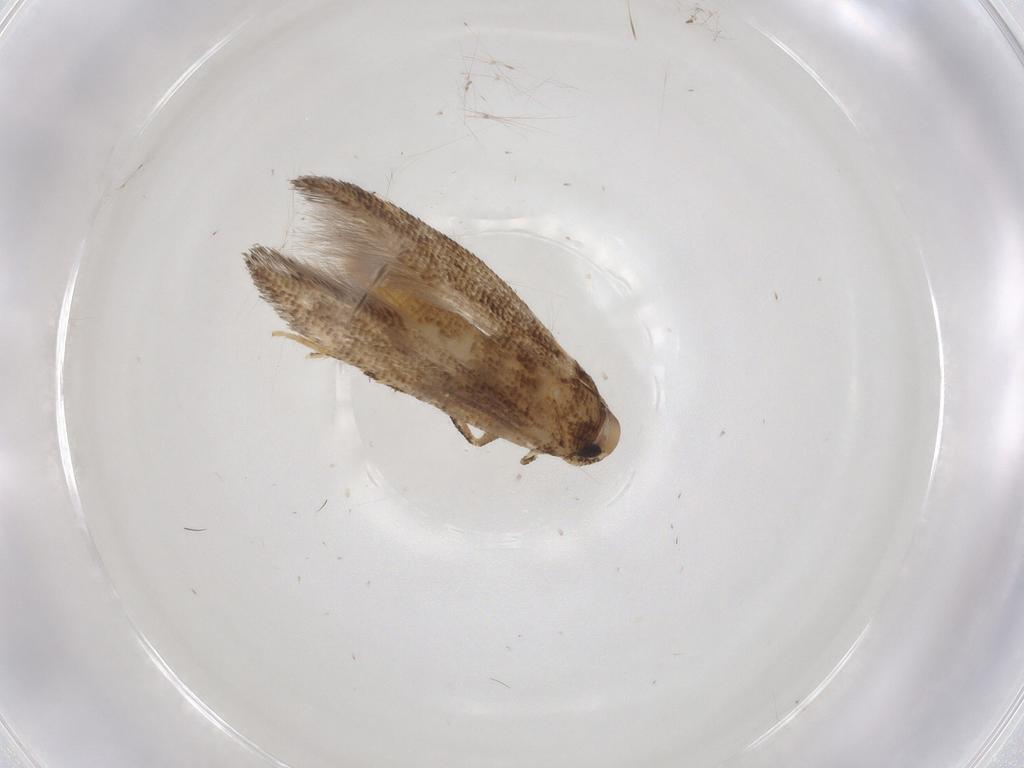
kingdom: Animalia
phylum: Arthropoda
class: Insecta
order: Lepidoptera
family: Cosmopterigidae
